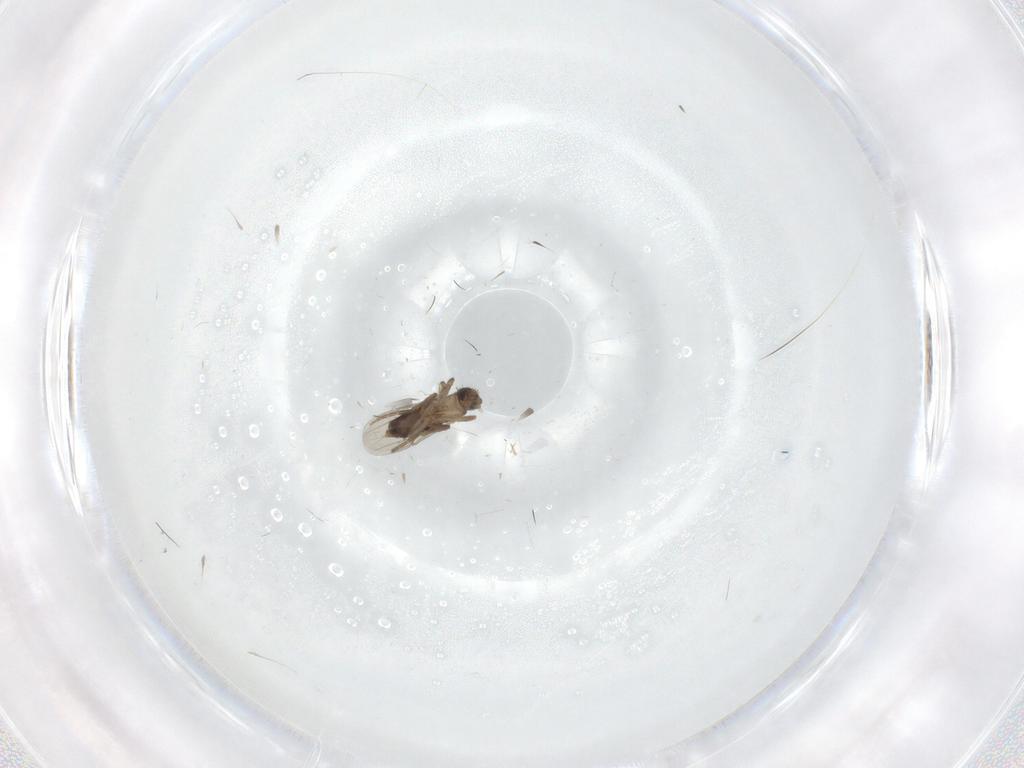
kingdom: Animalia
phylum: Arthropoda
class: Insecta
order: Diptera
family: Phoridae
